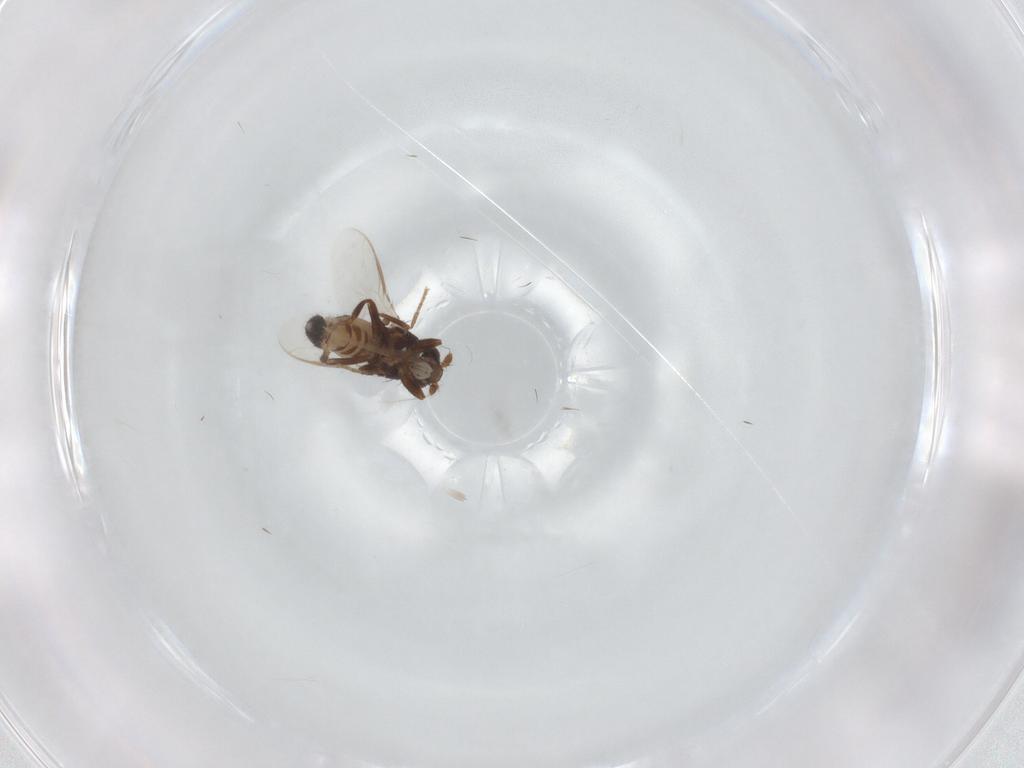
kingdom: Animalia
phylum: Arthropoda
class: Insecta
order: Diptera
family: Sphaeroceridae
